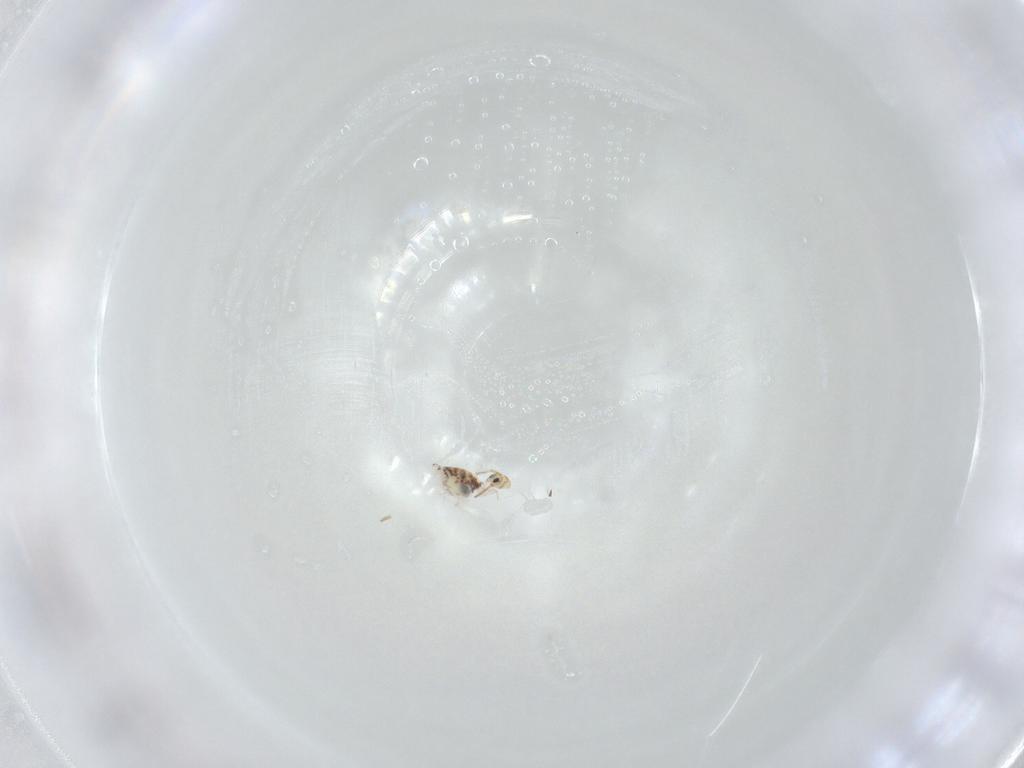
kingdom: Animalia
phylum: Arthropoda
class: Collembola
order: Symphypleona
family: Bourletiellidae
